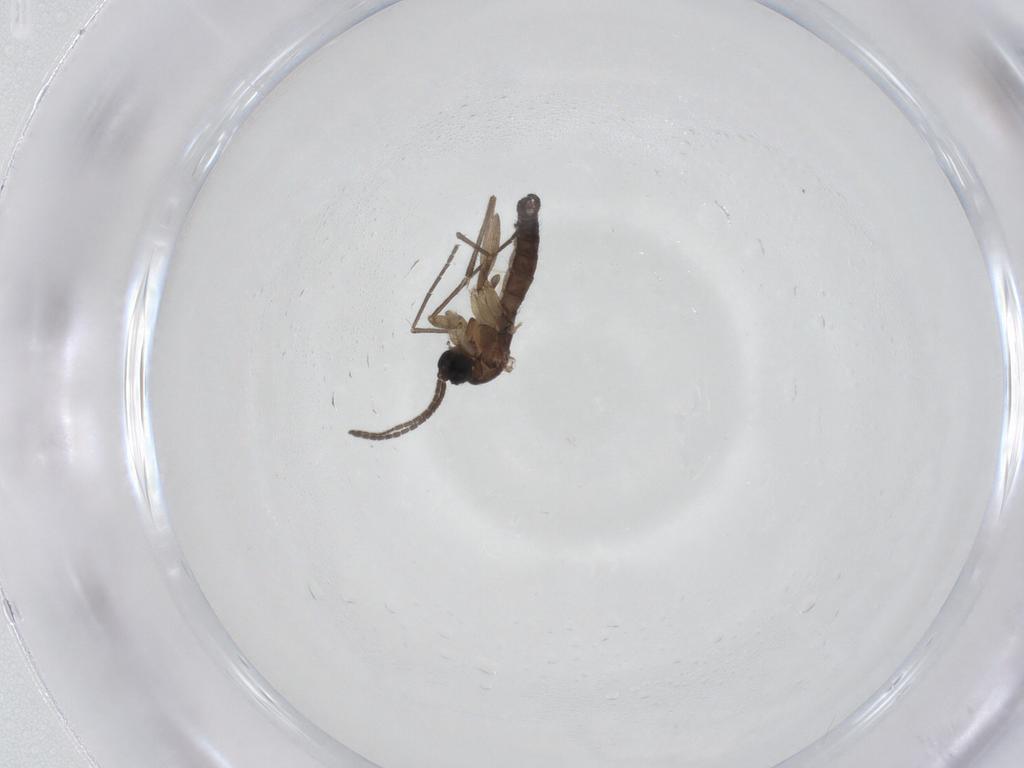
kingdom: Animalia
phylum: Arthropoda
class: Insecta
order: Diptera
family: Sciaridae
